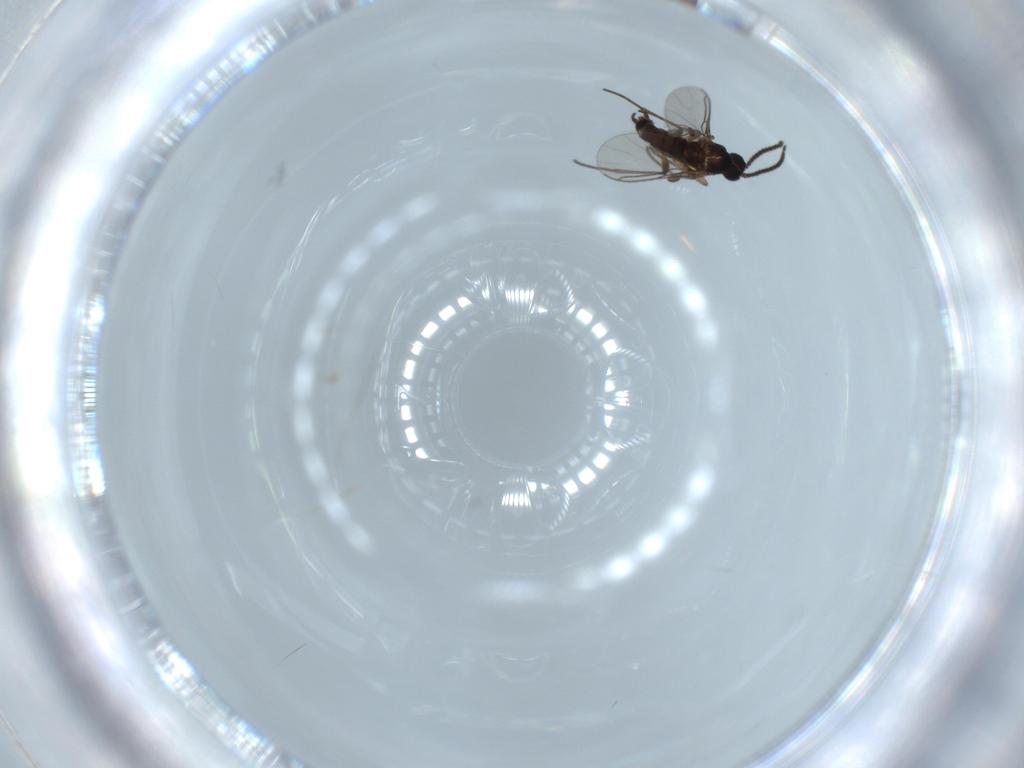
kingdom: Animalia
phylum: Arthropoda
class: Insecta
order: Diptera
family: Sciaridae
